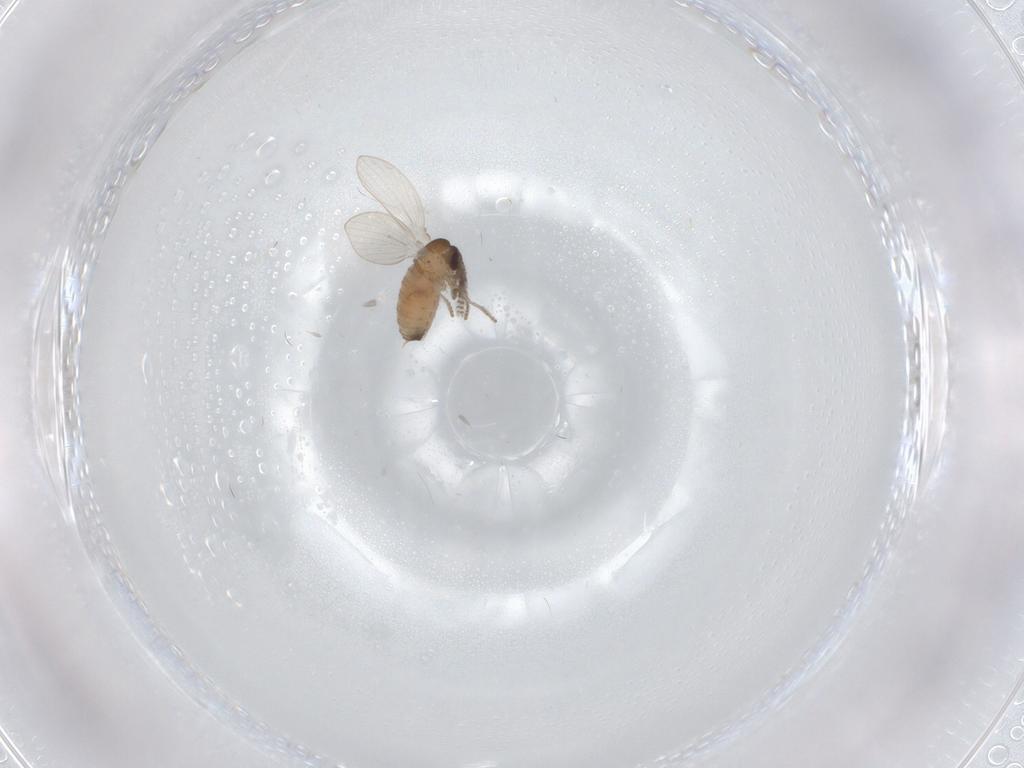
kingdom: Animalia
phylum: Arthropoda
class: Insecta
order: Diptera
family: Psychodidae
